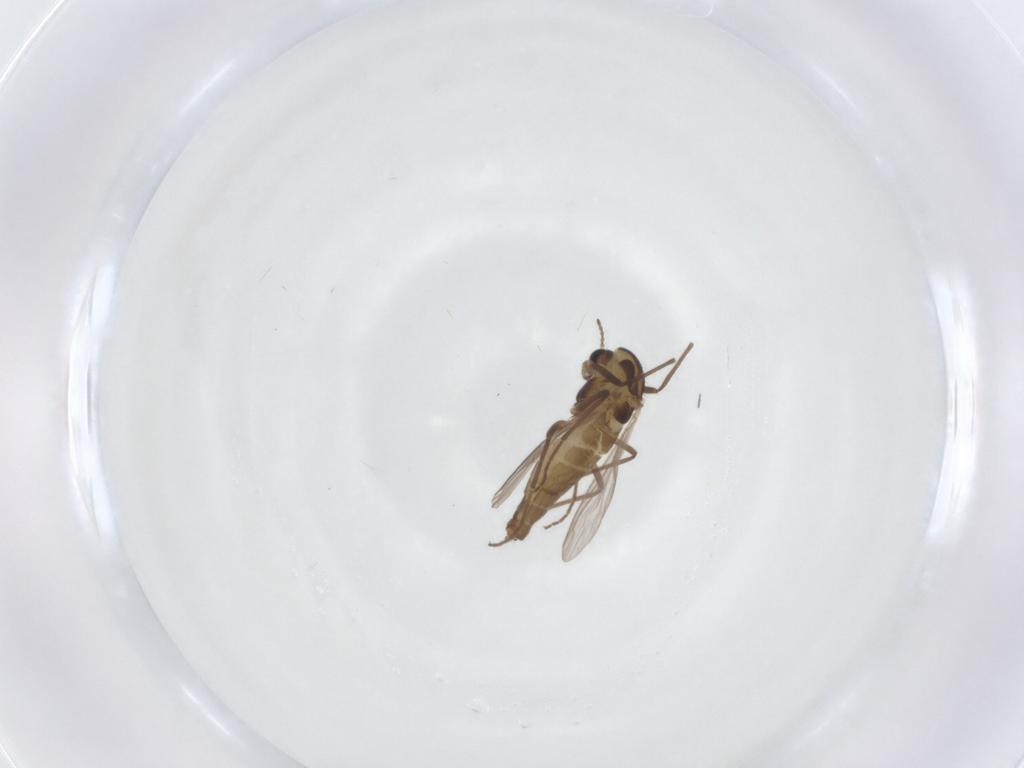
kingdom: Animalia
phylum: Arthropoda
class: Insecta
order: Diptera
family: Chironomidae
